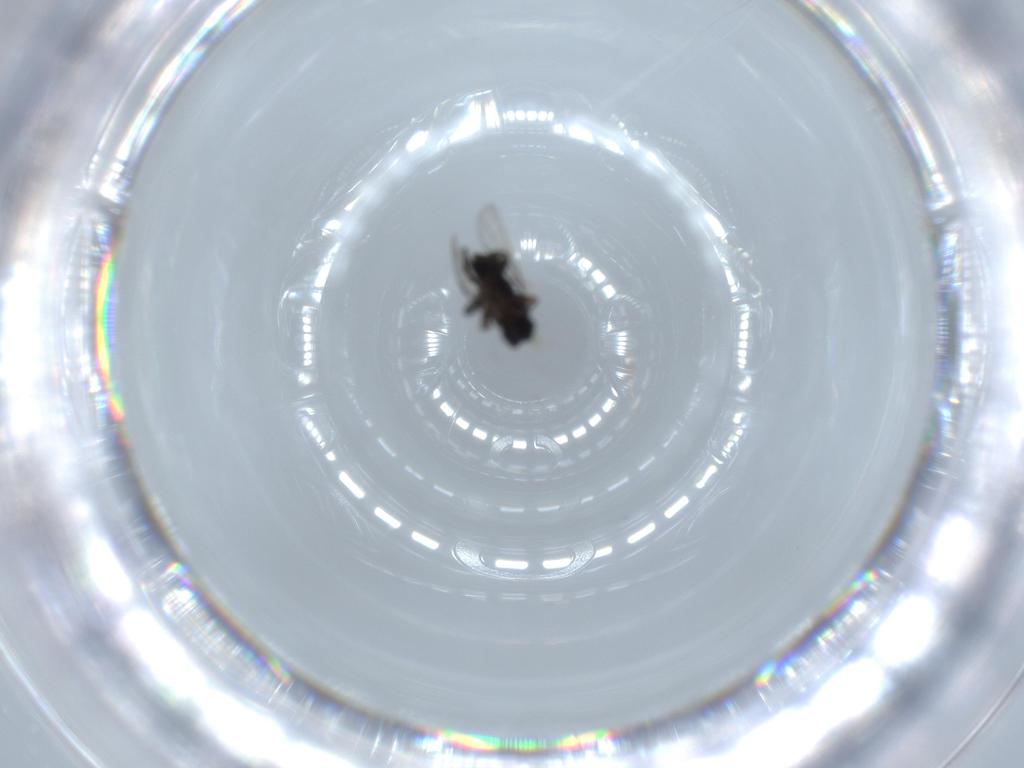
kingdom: Animalia
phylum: Arthropoda
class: Insecta
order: Diptera
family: Phoridae
